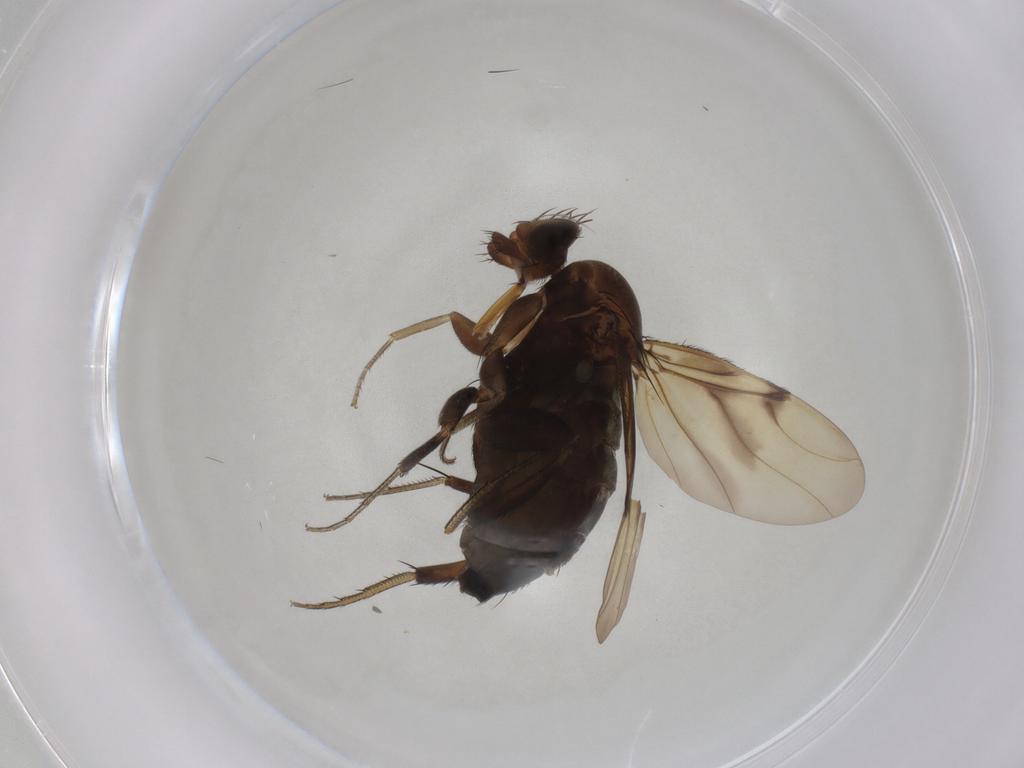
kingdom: Animalia
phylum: Arthropoda
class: Insecta
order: Diptera
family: Phoridae
